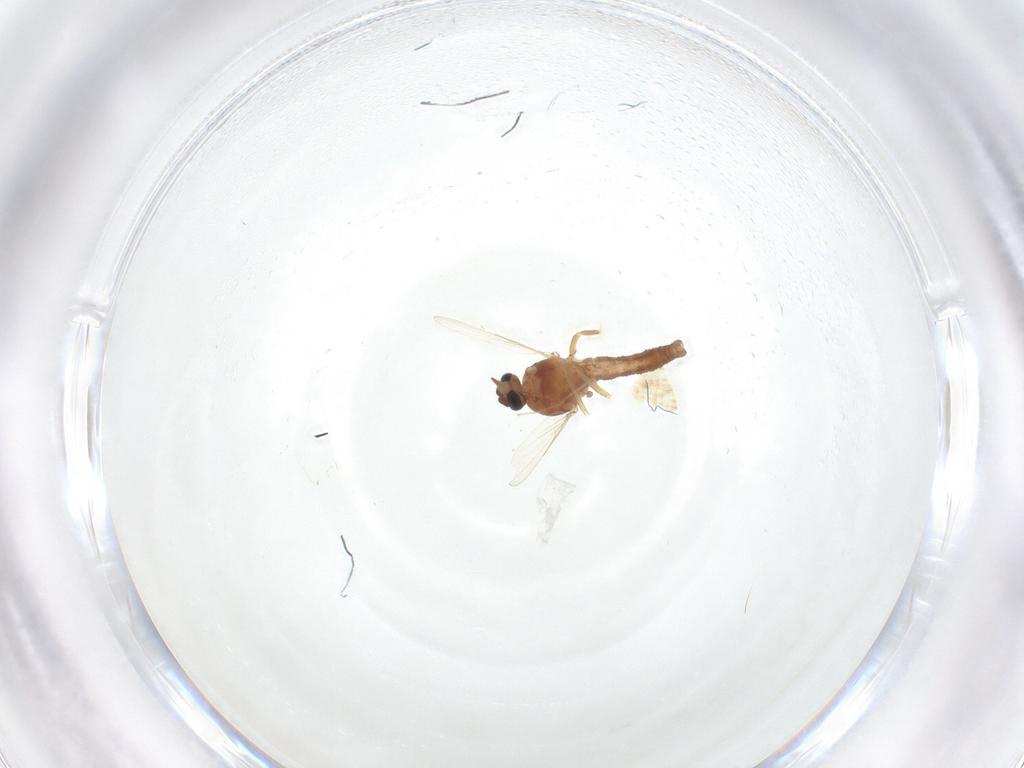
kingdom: Animalia
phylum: Arthropoda
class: Insecta
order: Diptera
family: Ceratopogonidae
